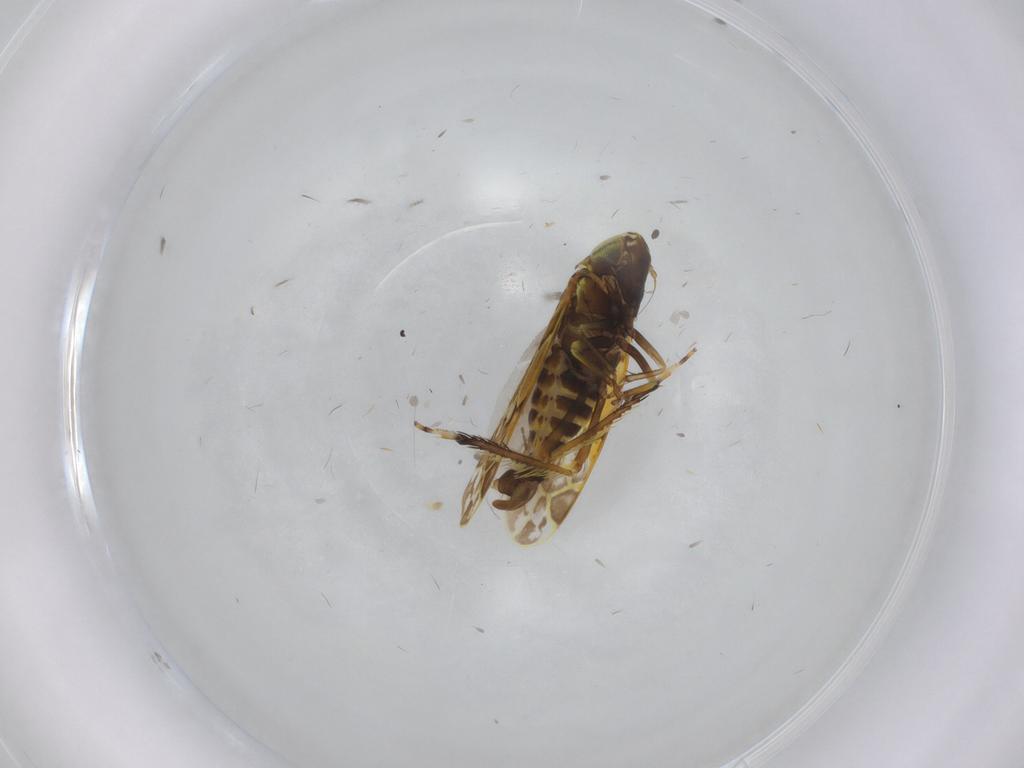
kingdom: Animalia
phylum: Arthropoda
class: Insecta
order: Hemiptera
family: Cicadellidae
